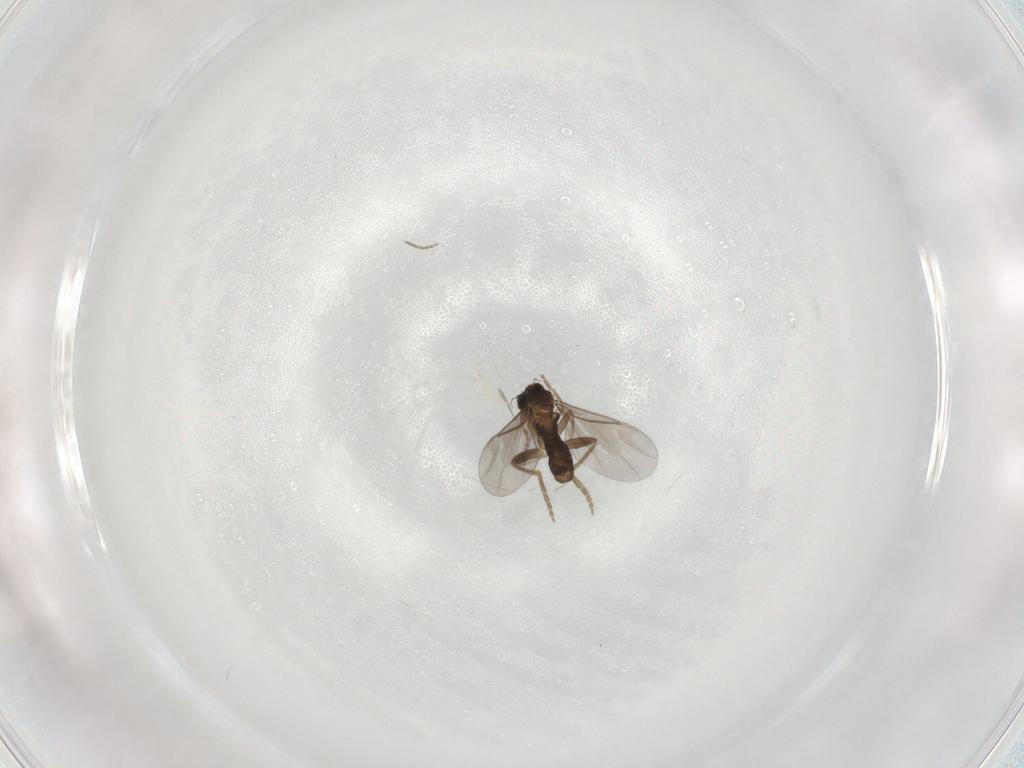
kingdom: Animalia
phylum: Arthropoda
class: Insecta
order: Diptera
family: Phoridae
